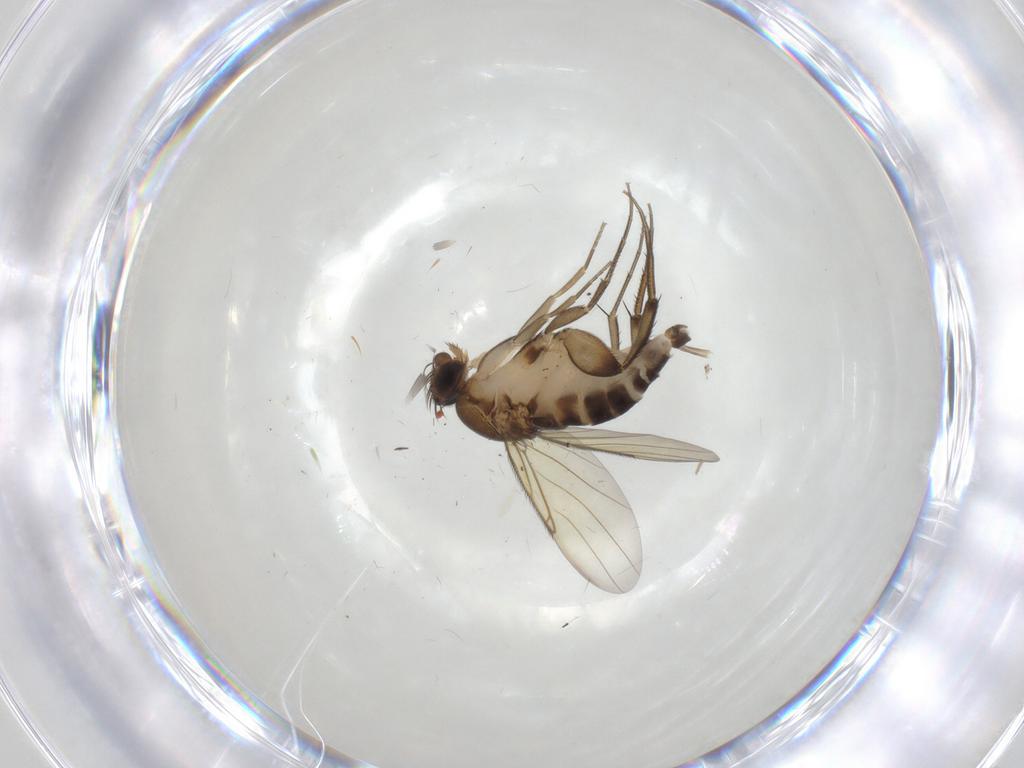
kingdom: Animalia
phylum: Arthropoda
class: Insecta
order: Diptera
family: Phoridae
